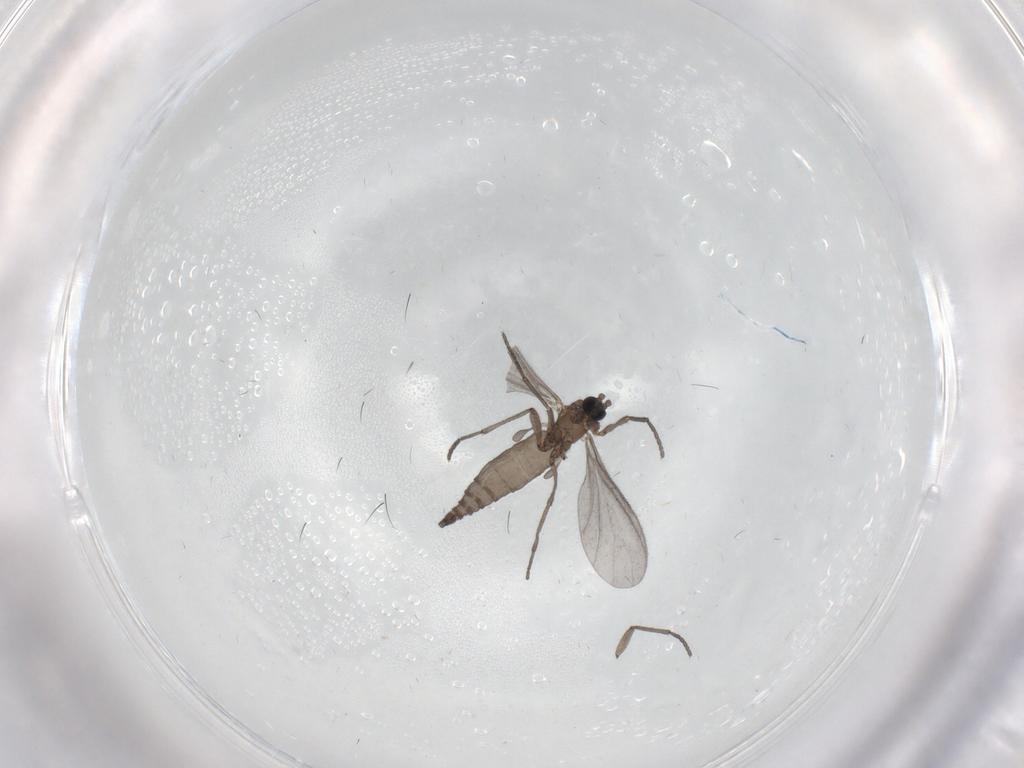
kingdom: Animalia
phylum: Arthropoda
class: Insecta
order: Diptera
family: Sciaridae
